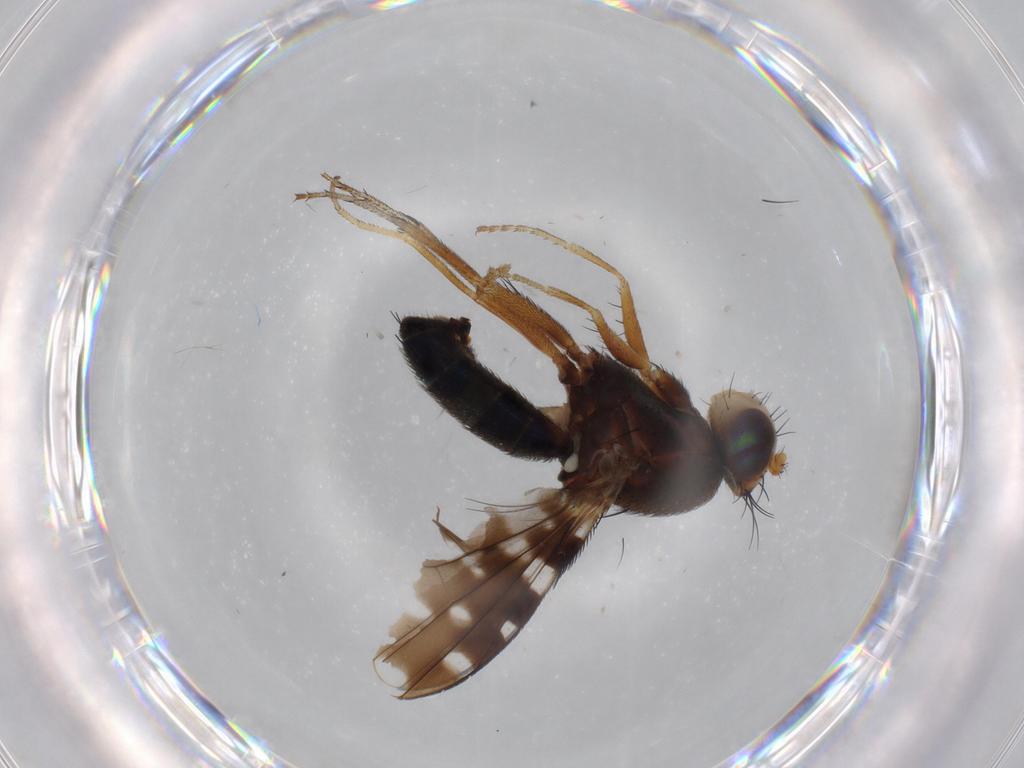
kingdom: Animalia
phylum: Arthropoda
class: Insecta
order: Diptera
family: Ephydridae
